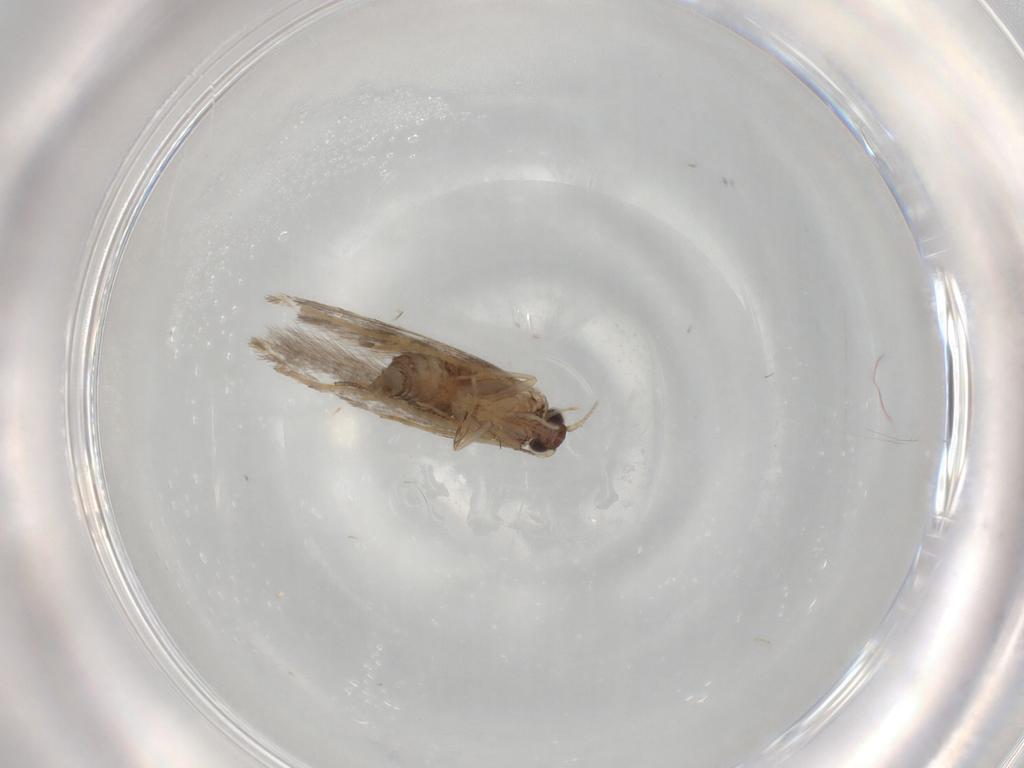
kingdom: Animalia
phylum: Arthropoda
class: Insecta
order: Lepidoptera
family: Tineidae
